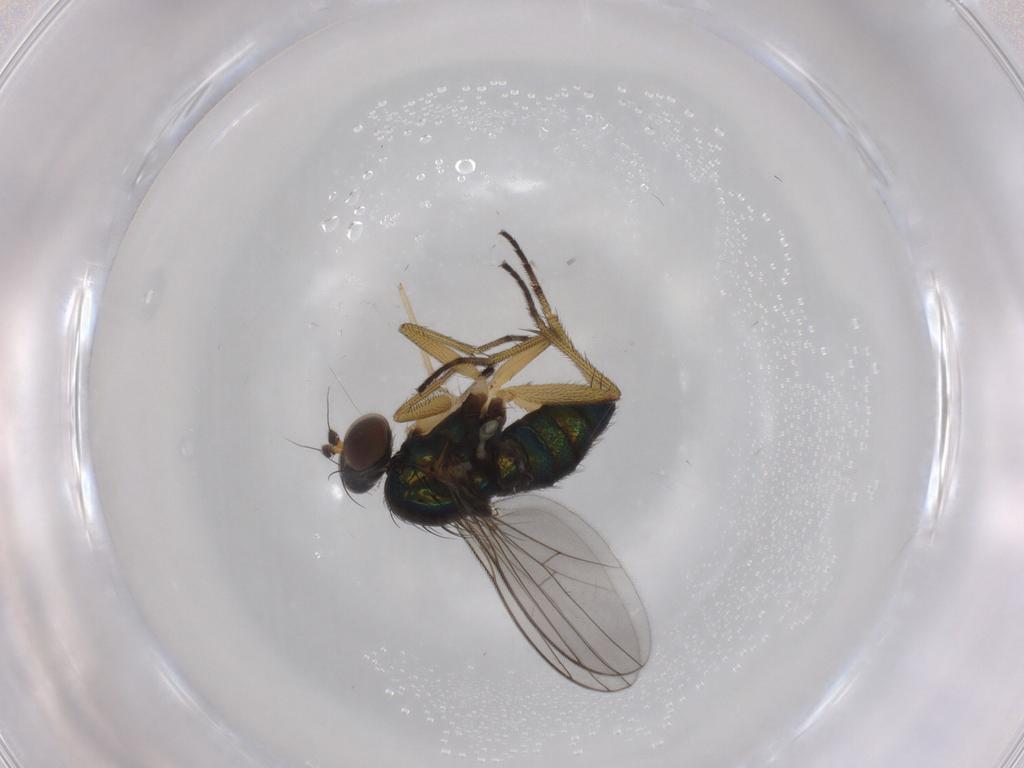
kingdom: Animalia
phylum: Arthropoda
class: Insecta
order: Diptera
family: Dolichopodidae
